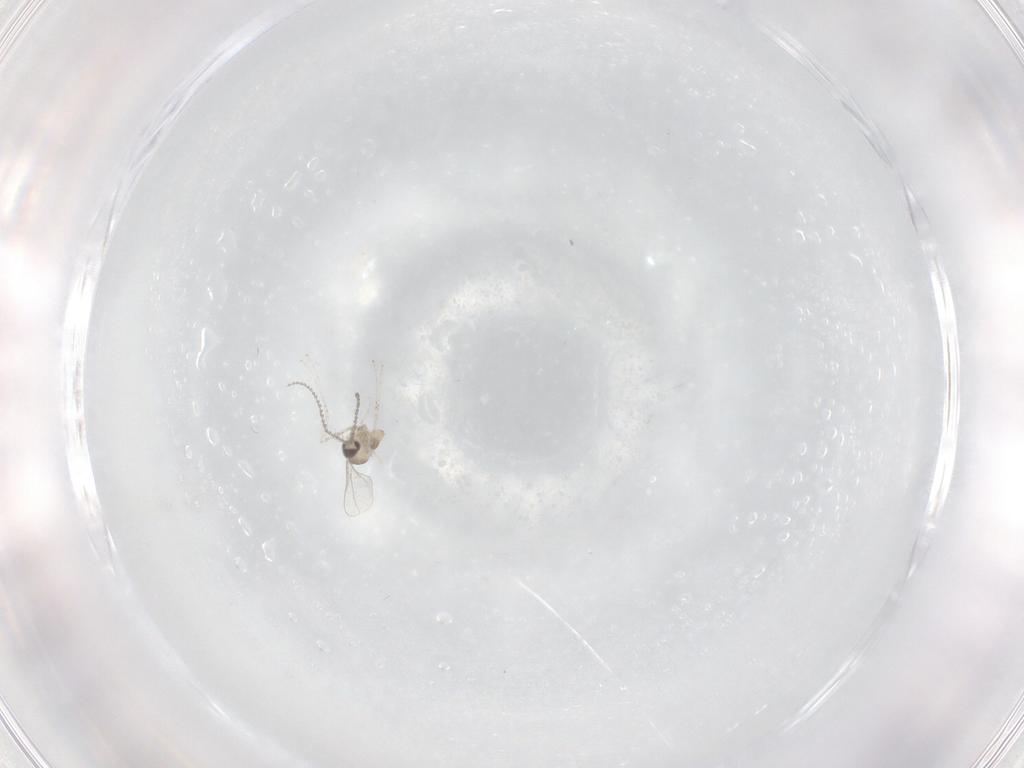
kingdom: Animalia
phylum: Arthropoda
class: Insecta
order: Diptera
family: Cecidomyiidae
